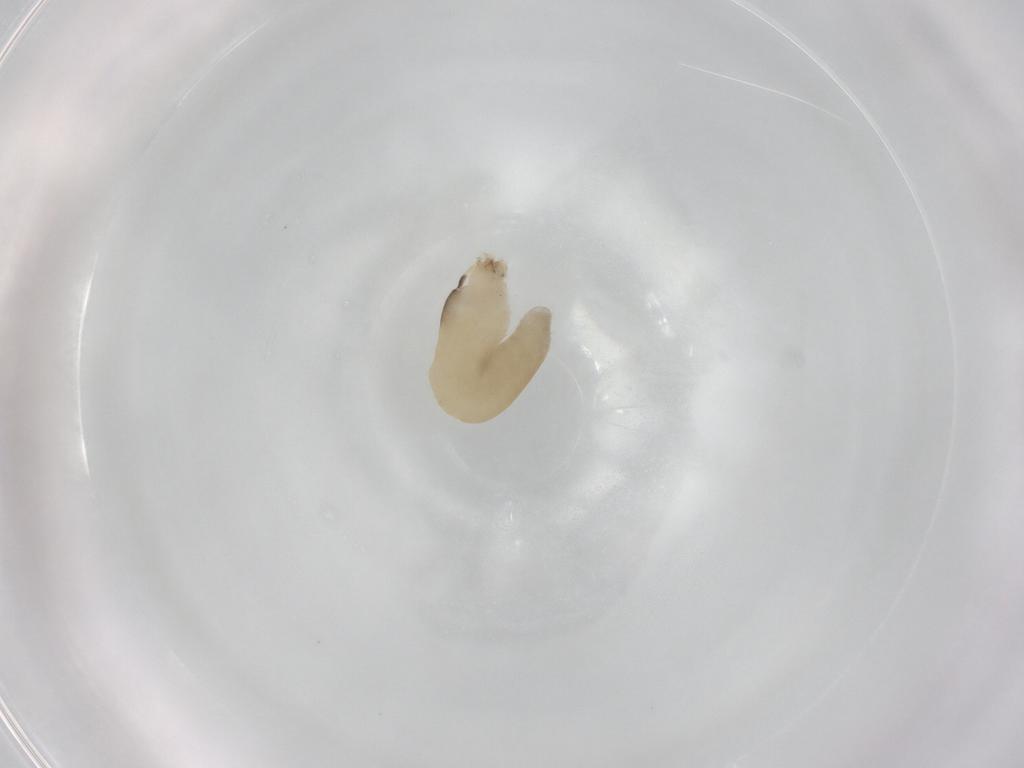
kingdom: Animalia
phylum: Arthropoda
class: Insecta
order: Hymenoptera
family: Dryinidae
